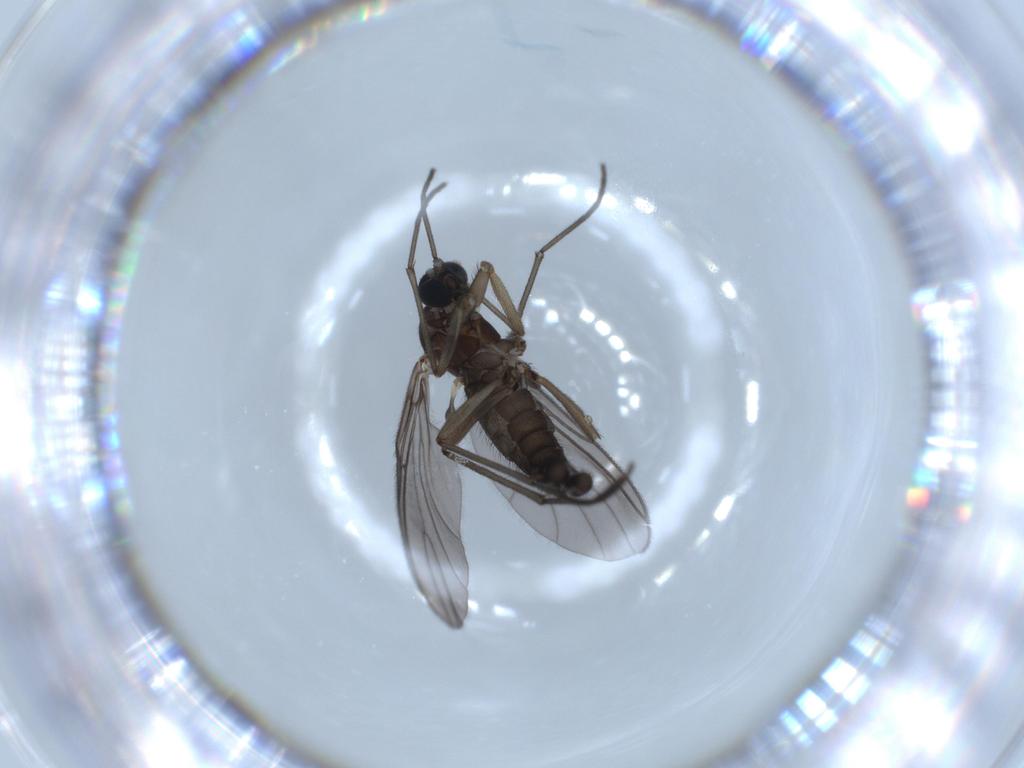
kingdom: Animalia
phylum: Arthropoda
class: Insecta
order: Diptera
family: Sciaridae
